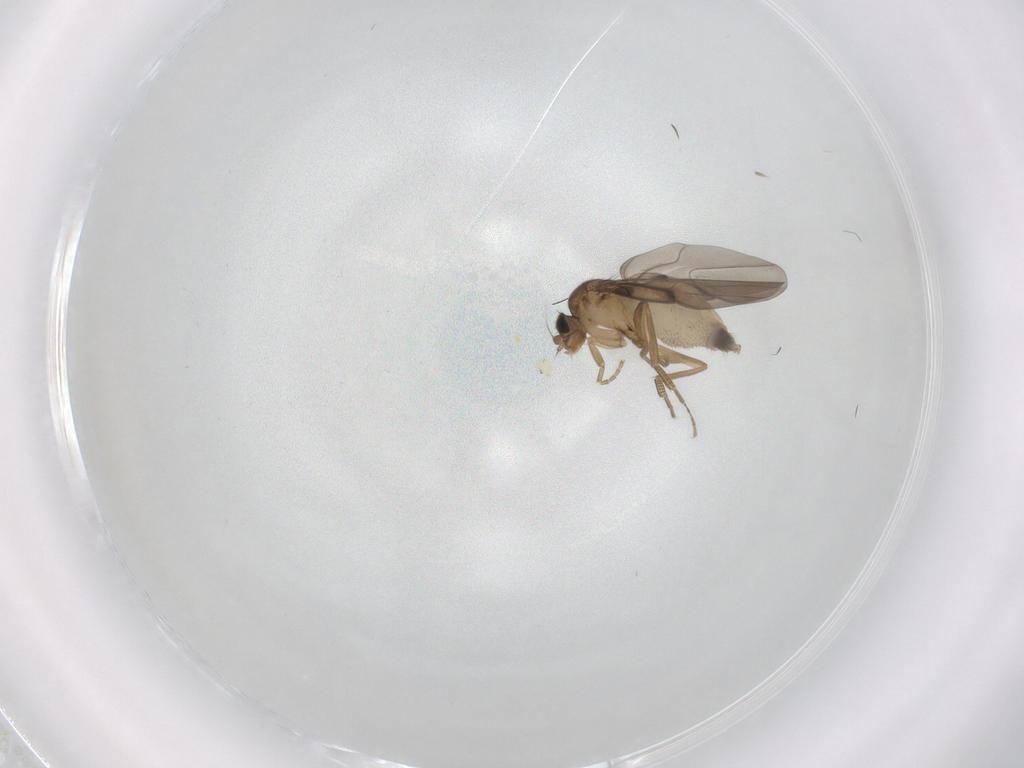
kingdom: Animalia
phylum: Arthropoda
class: Insecta
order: Diptera
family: Phoridae
